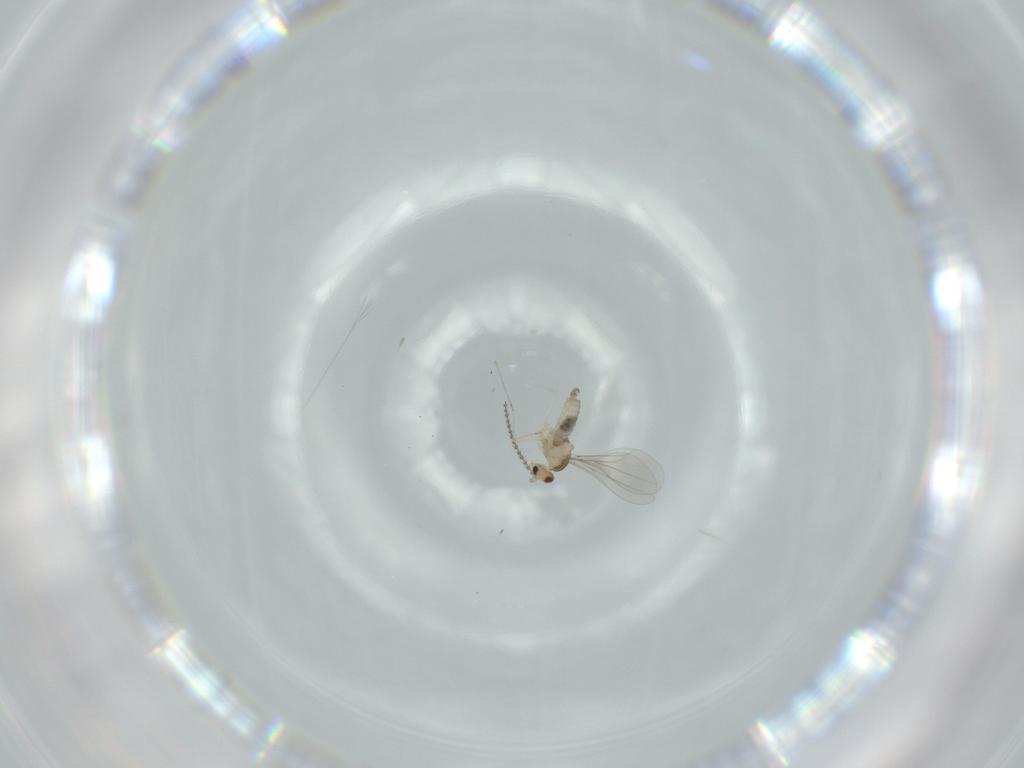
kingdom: Animalia
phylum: Arthropoda
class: Insecta
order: Diptera
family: Cecidomyiidae
